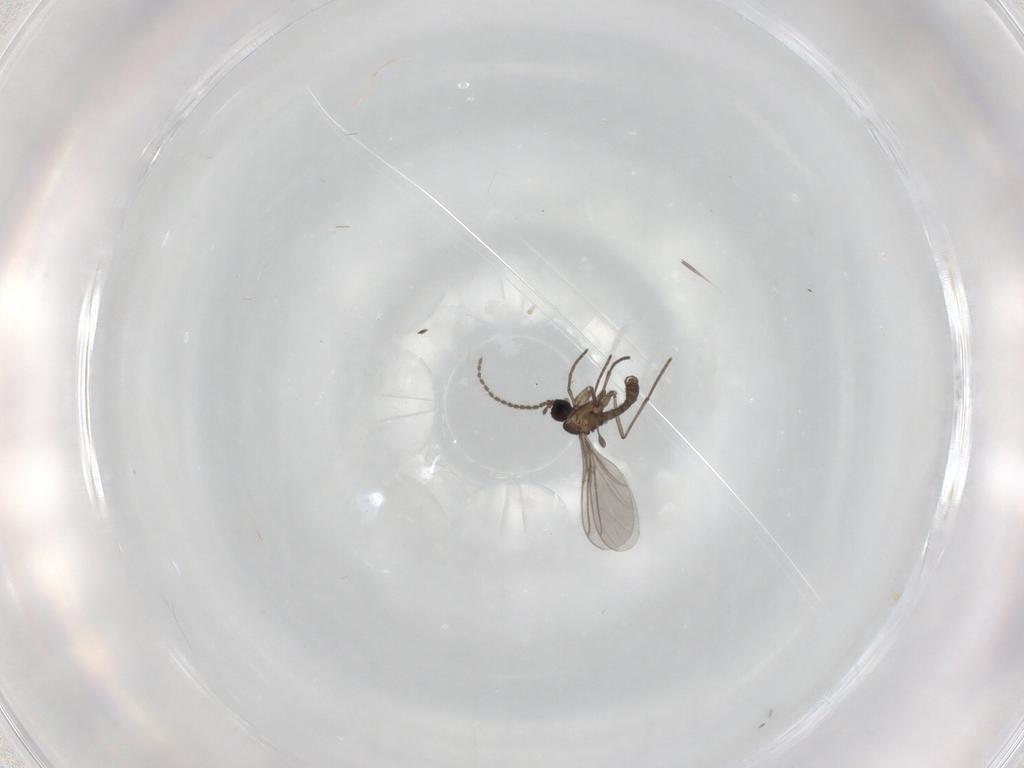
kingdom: Animalia
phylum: Arthropoda
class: Insecta
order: Diptera
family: Sciaridae
